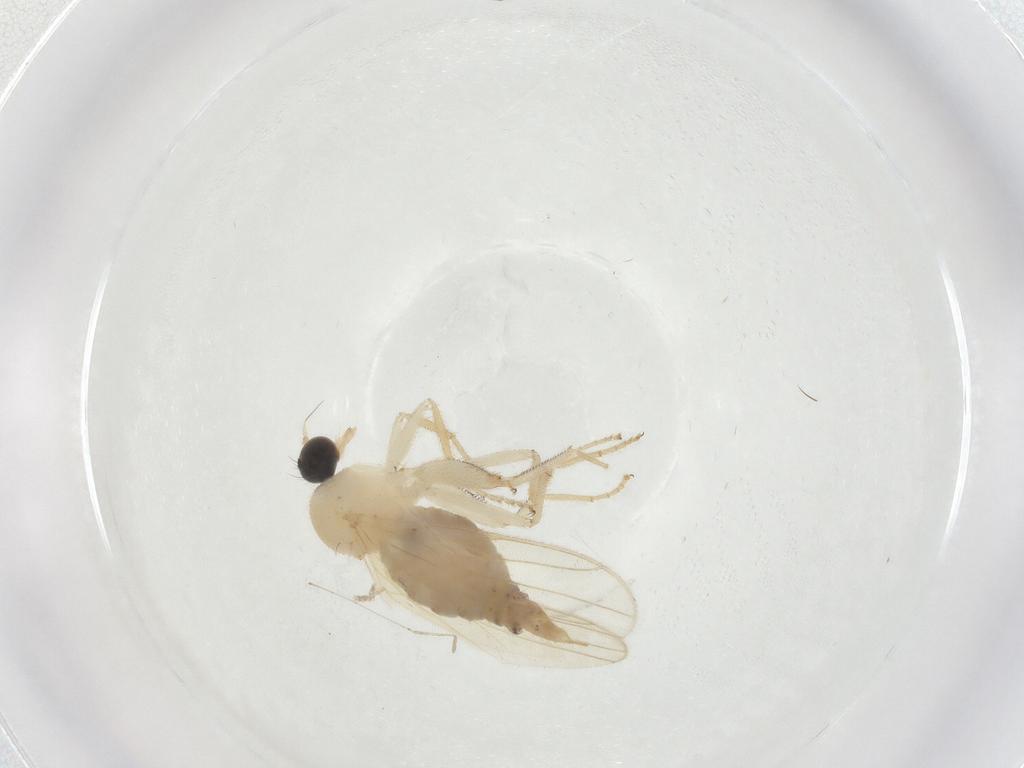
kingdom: Animalia
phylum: Arthropoda
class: Insecta
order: Diptera
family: Hybotidae
